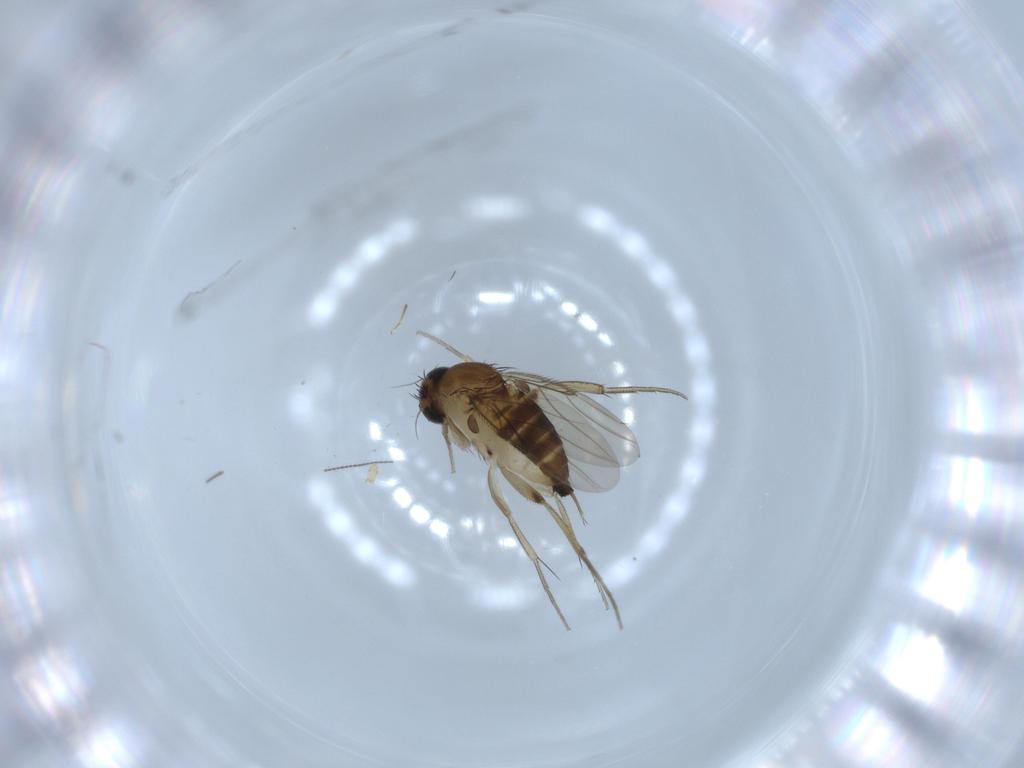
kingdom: Animalia
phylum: Arthropoda
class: Insecta
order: Diptera
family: Phoridae
